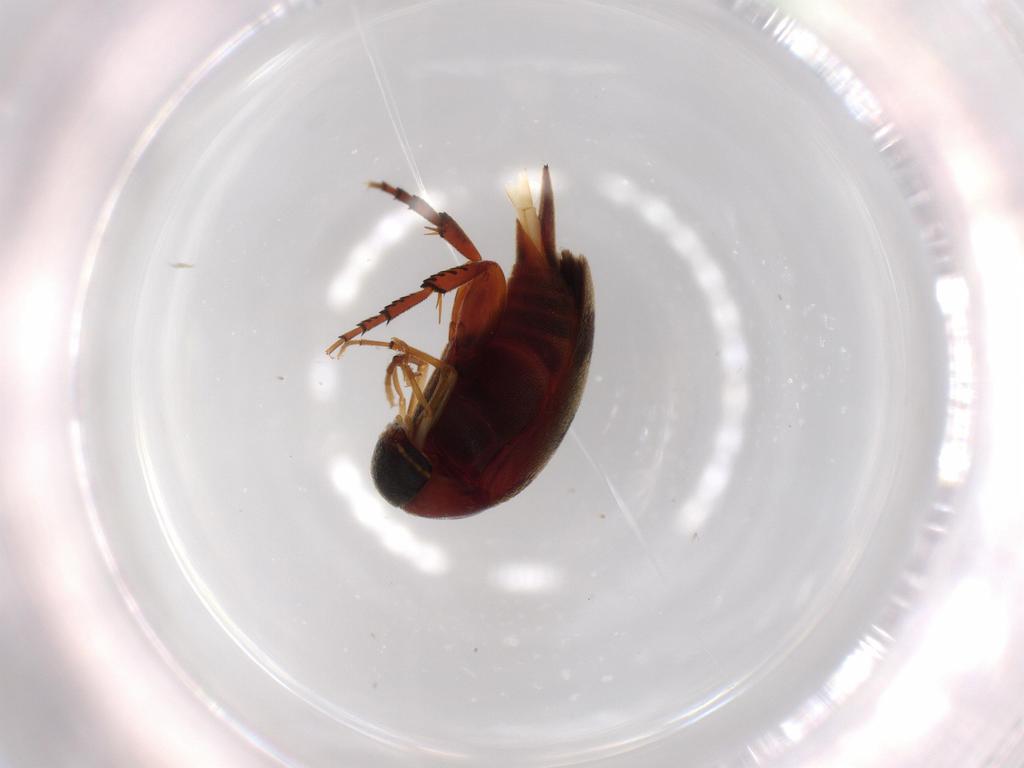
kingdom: Animalia
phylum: Arthropoda
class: Insecta
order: Coleoptera
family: Mordellidae
